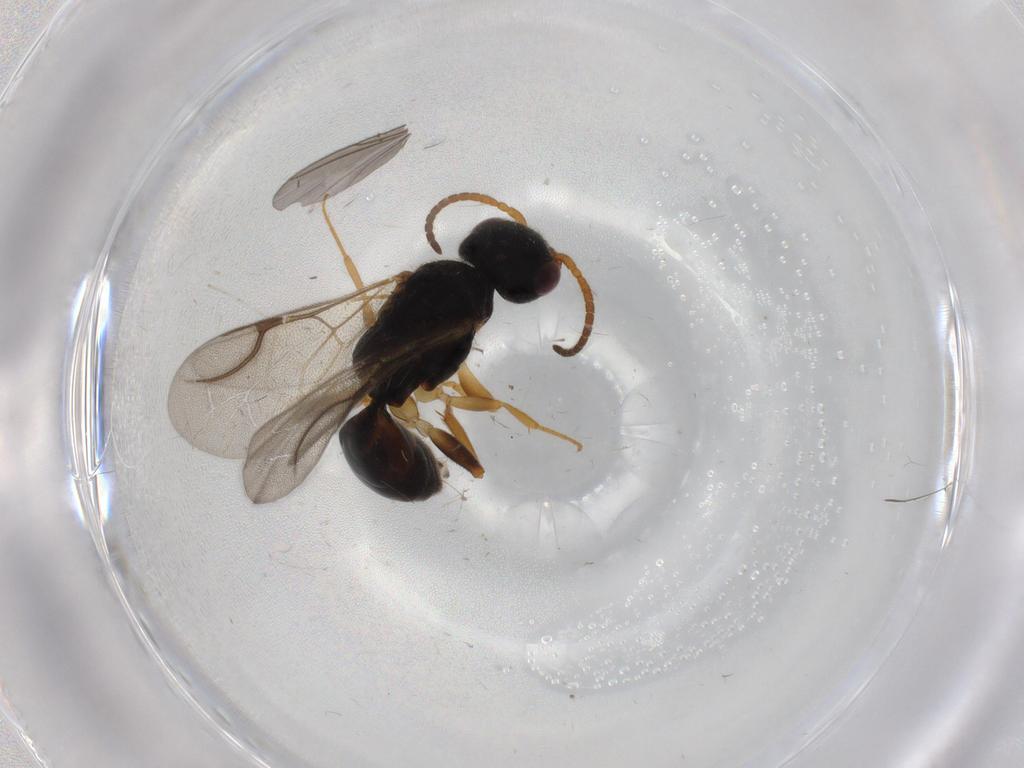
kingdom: Animalia
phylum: Arthropoda
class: Insecta
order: Hymenoptera
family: Bethylidae
